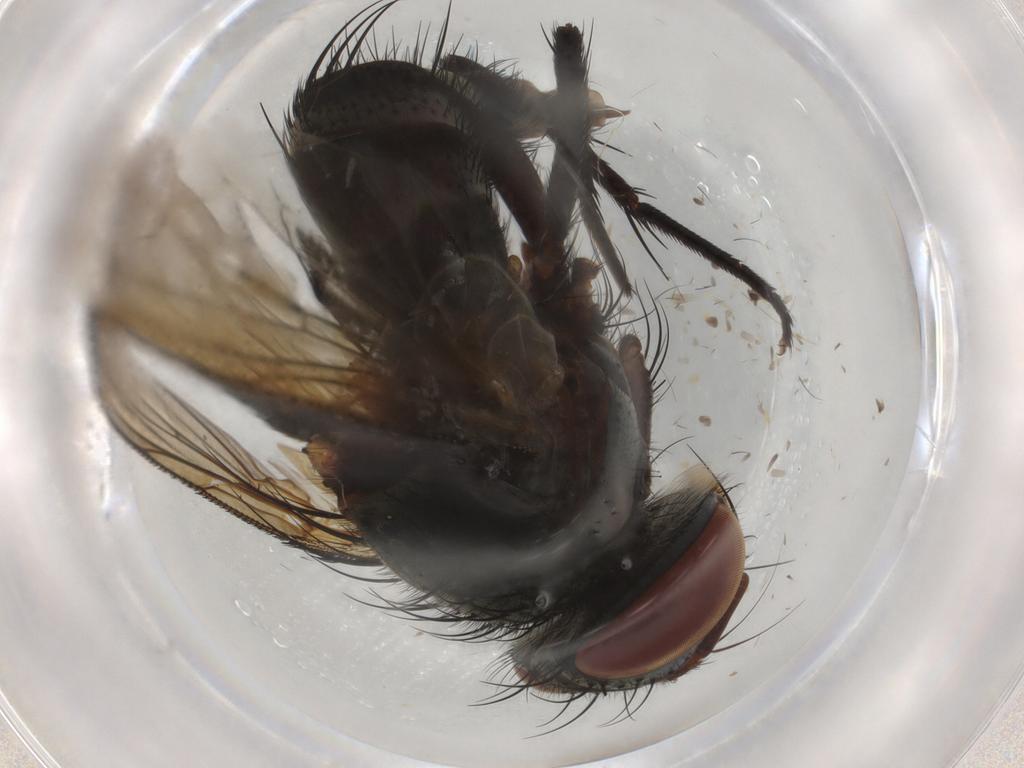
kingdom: Animalia
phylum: Arthropoda
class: Insecta
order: Diptera
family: Tachinidae
